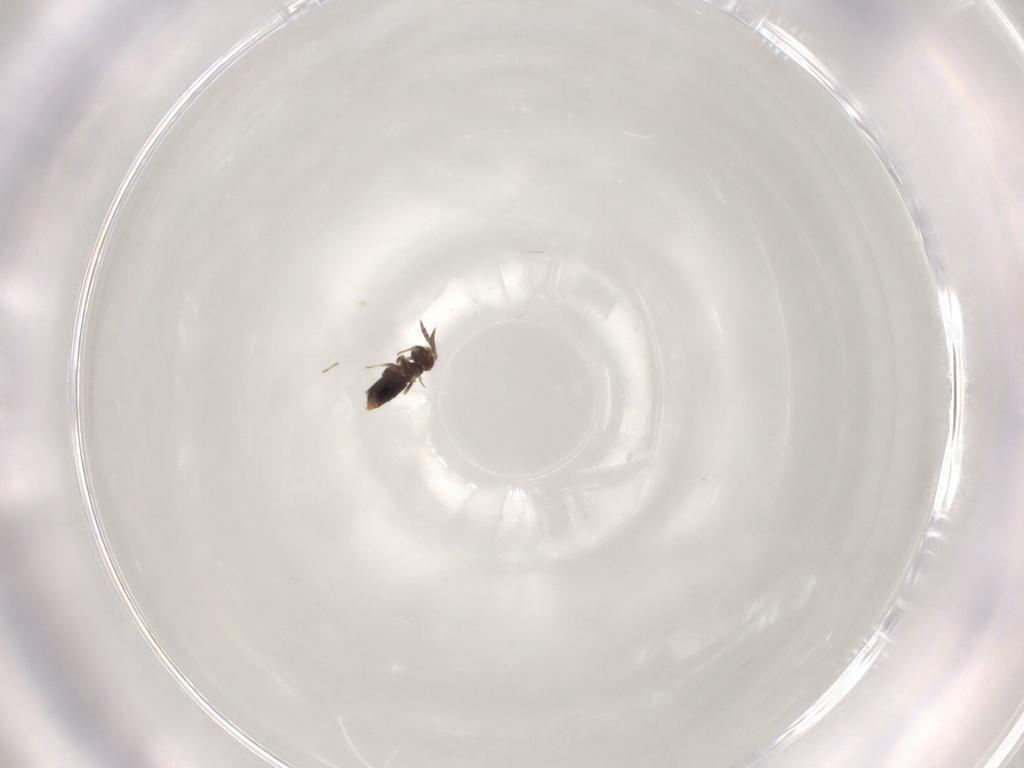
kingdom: Animalia
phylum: Arthropoda
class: Insecta
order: Hymenoptera
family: Aphelinidae
